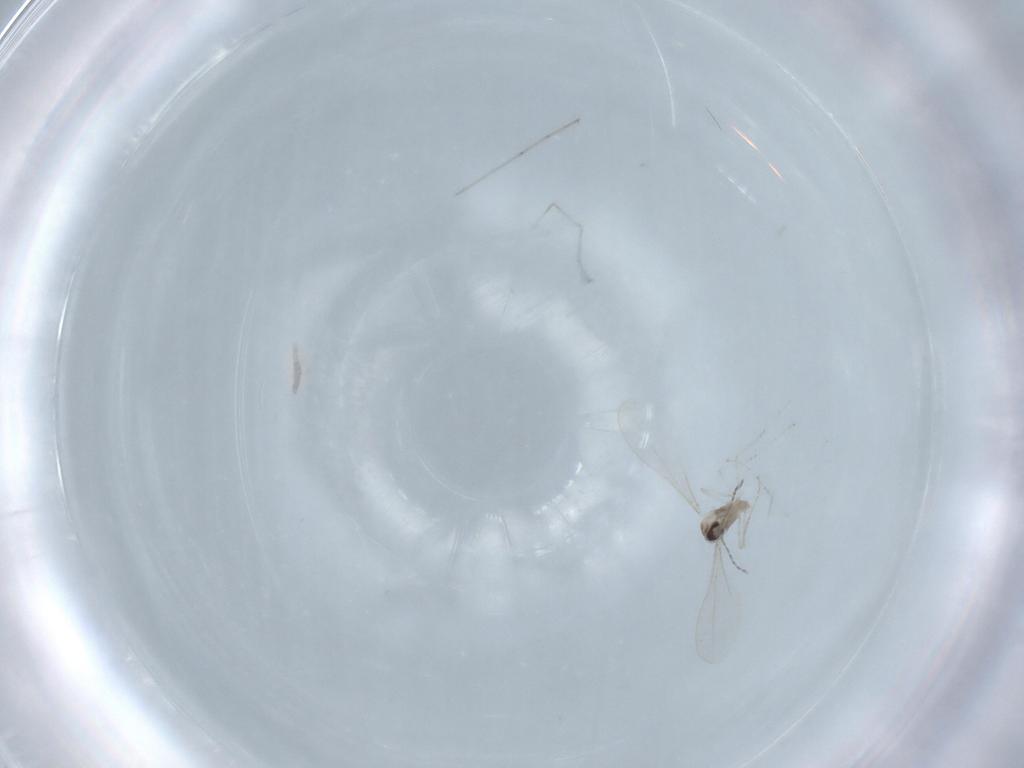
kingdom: Animalia
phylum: Arthropoda
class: Insecta
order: Diptera
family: Cecidomyiidae
